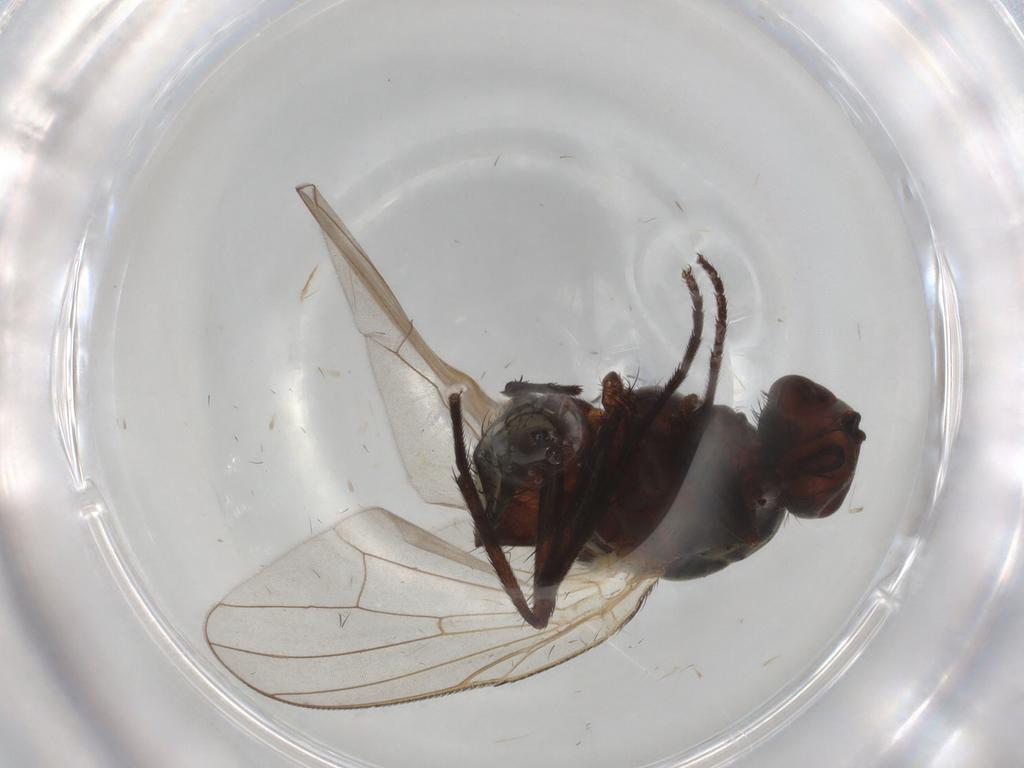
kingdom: Animalia
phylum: Arthropoda
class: Insecta
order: Diptera
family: Anthomyiidae
